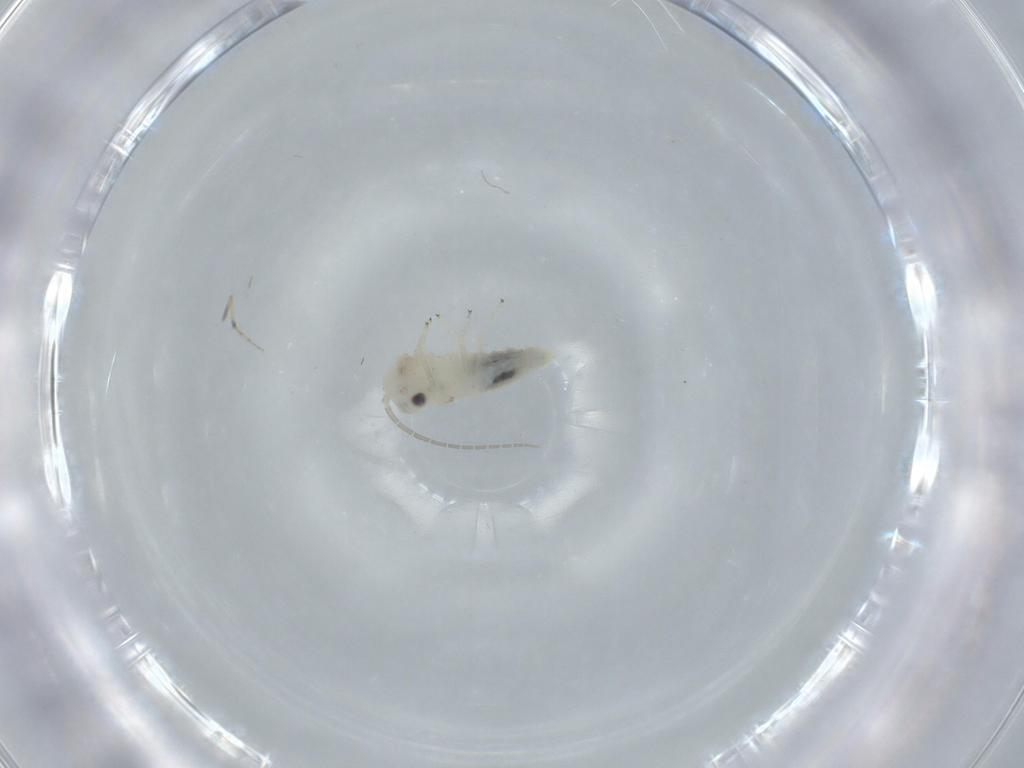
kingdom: Animalia
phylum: Arthropoda
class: Insecta
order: Psocodea
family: Caeciliusidae
